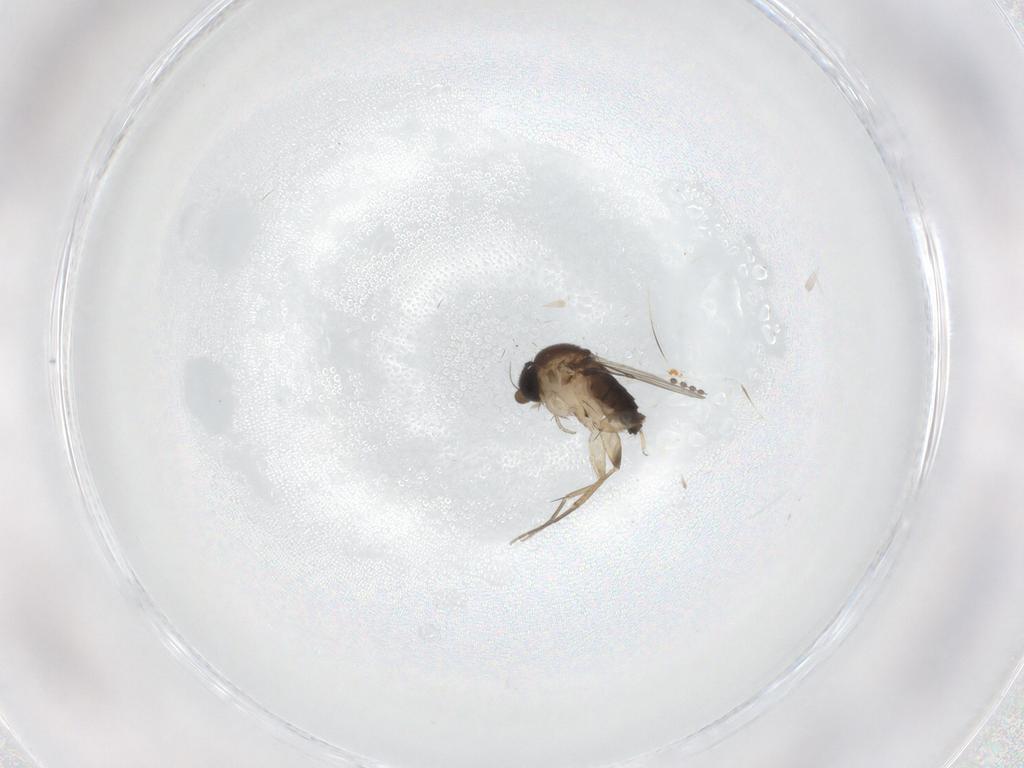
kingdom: Animalia
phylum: Arthropoda
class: Insecta
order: Diptera
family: Phoridae
